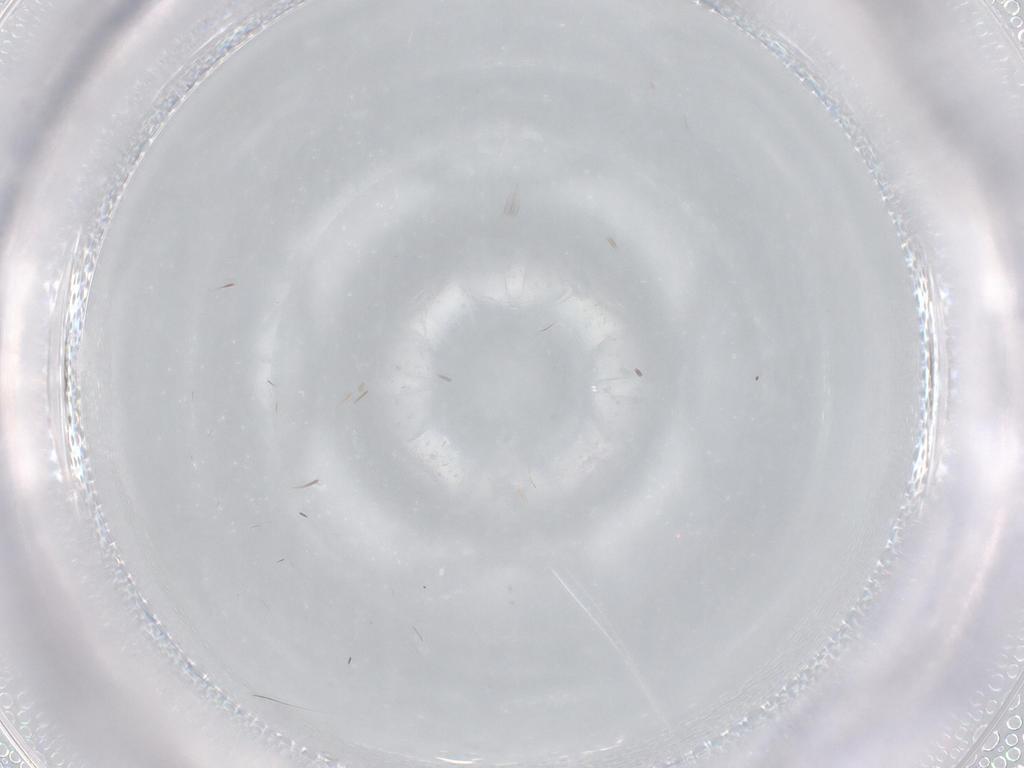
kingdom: Animalia
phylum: Arthropoda
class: Insecta
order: Diptera
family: Sciaridae
